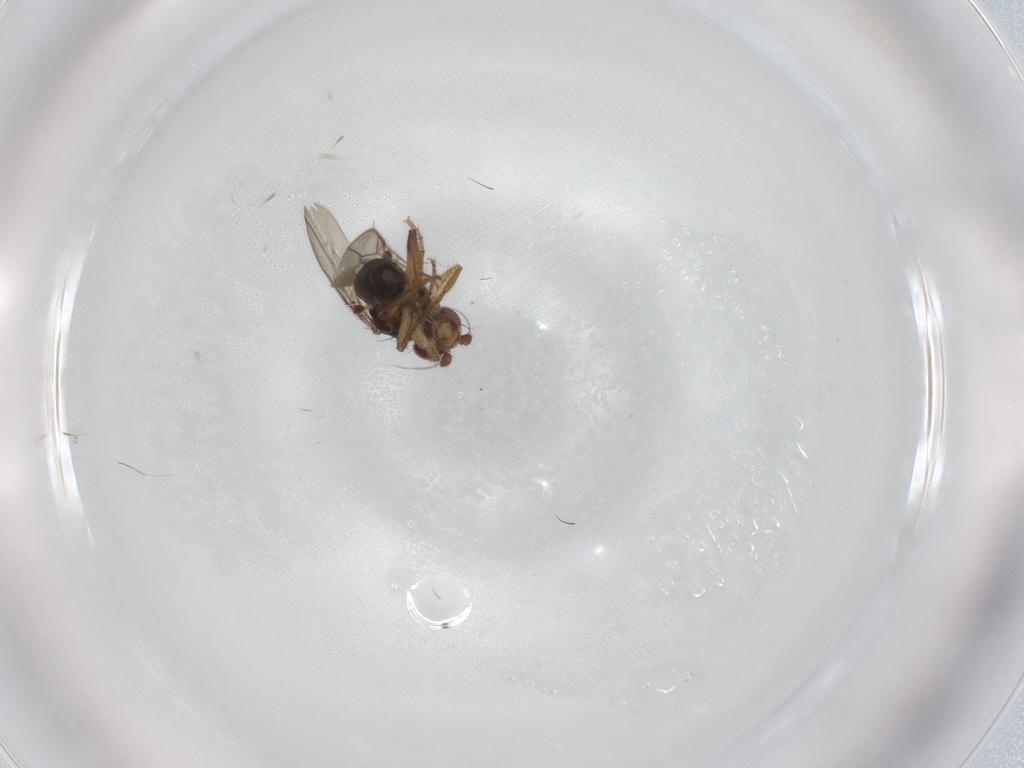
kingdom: Animalia
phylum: Arthropoda
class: Insecta
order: Diptera
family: Sphaeroceridae
